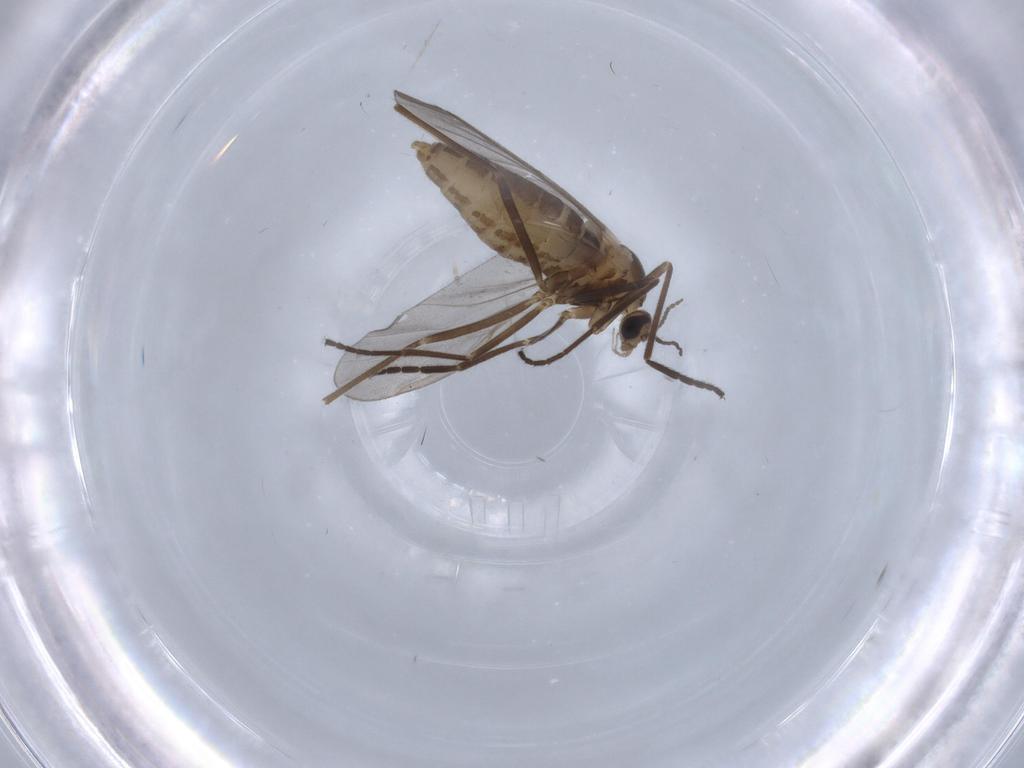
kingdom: Animalia
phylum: Arthropoda
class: Insecta
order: Diptera
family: Cecidomyiidae
